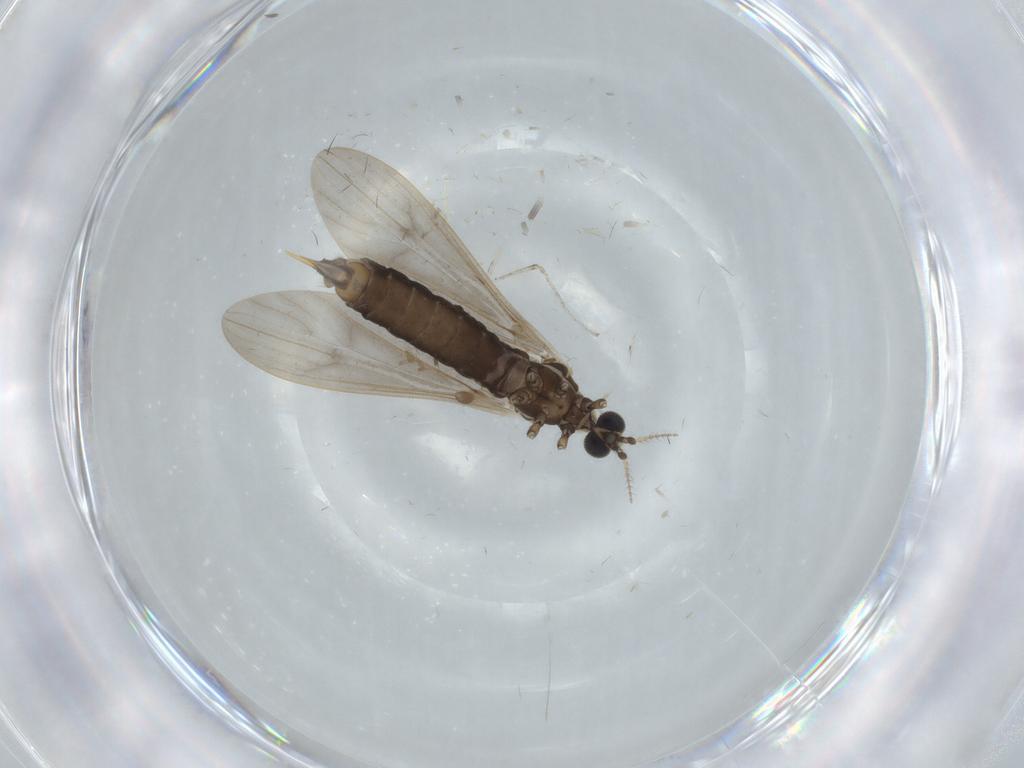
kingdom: Animalia
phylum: Arthropoda
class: Insecta
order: Diptera
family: Limoniidae
